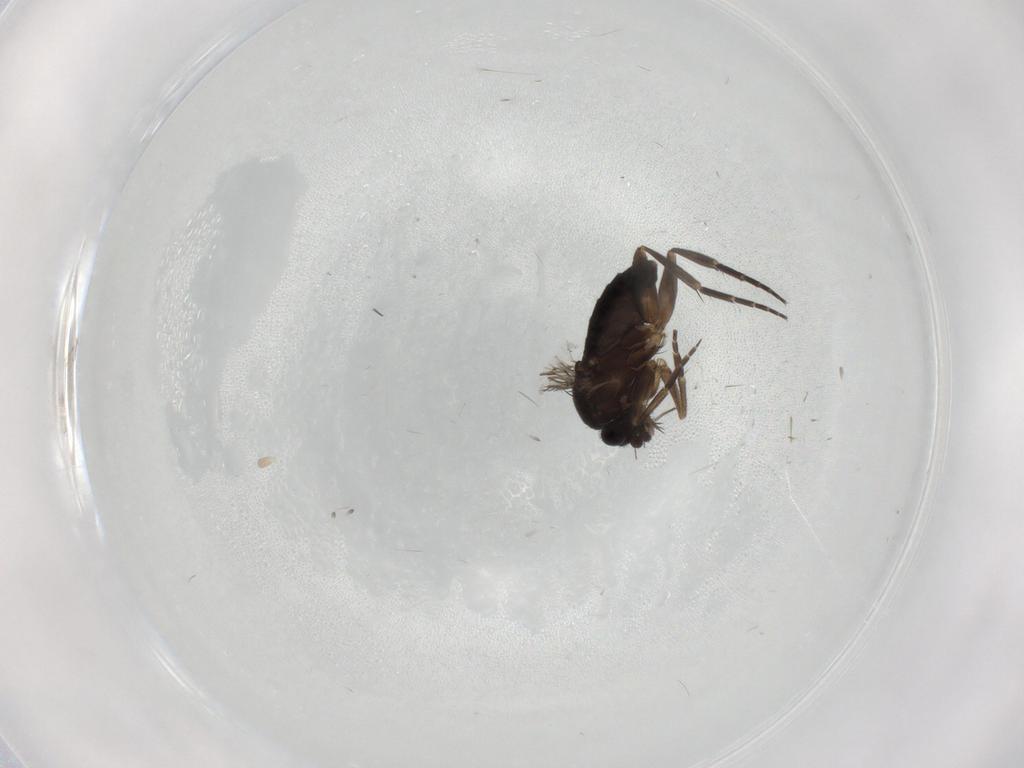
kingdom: Animalia
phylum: Arthropoda
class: Insecta
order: Diptera
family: Phoridae
